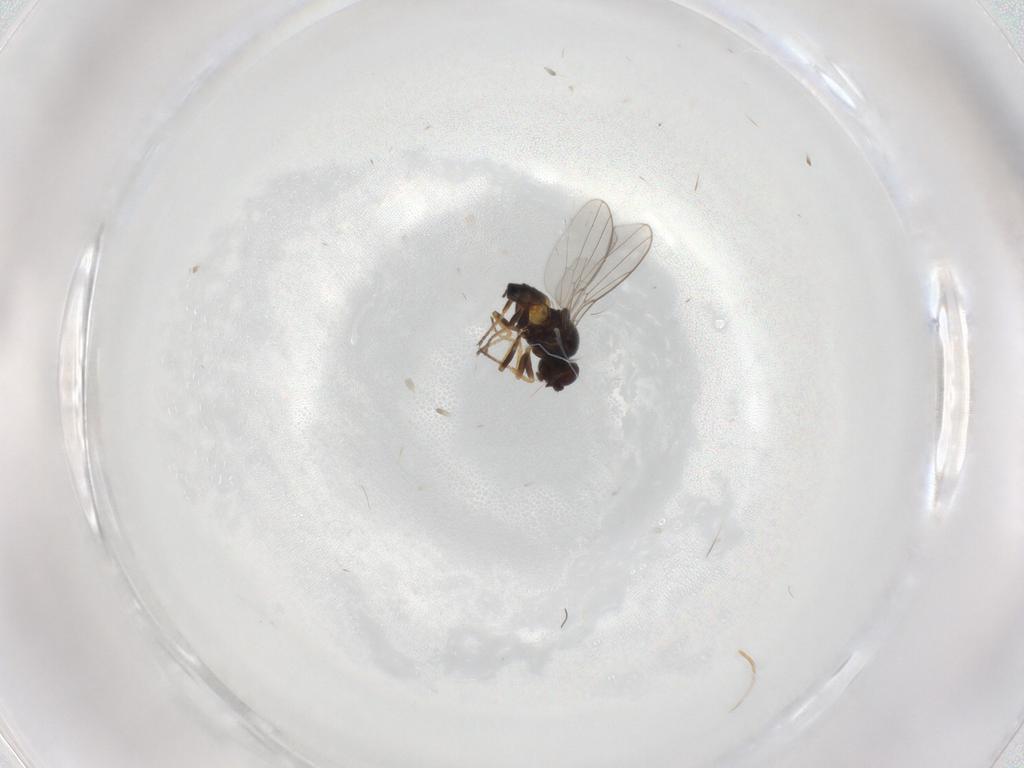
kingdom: Animalia
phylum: Arthropoda
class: Insecta
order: Diptera
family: Chloropidae
